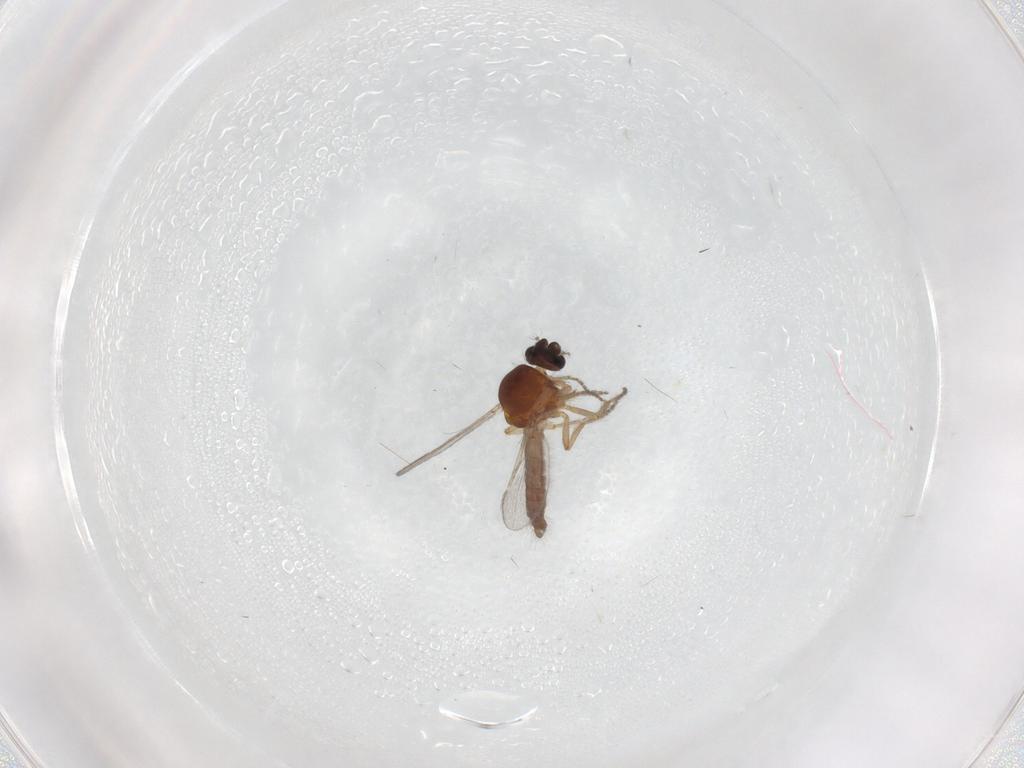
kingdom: Animalia
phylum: Arthropoda
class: Insecta
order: Diptera
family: Ceratopogonidae
